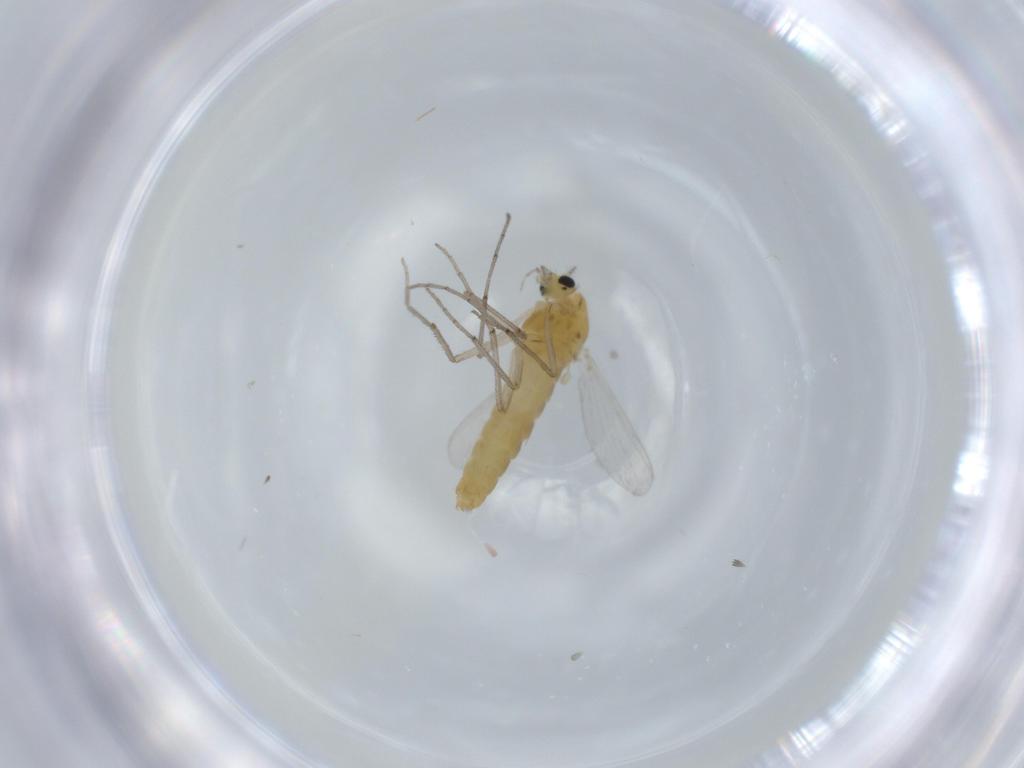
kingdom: Animalia
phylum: Arthropoda
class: Insecta
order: Diptera
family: Chironomidae
